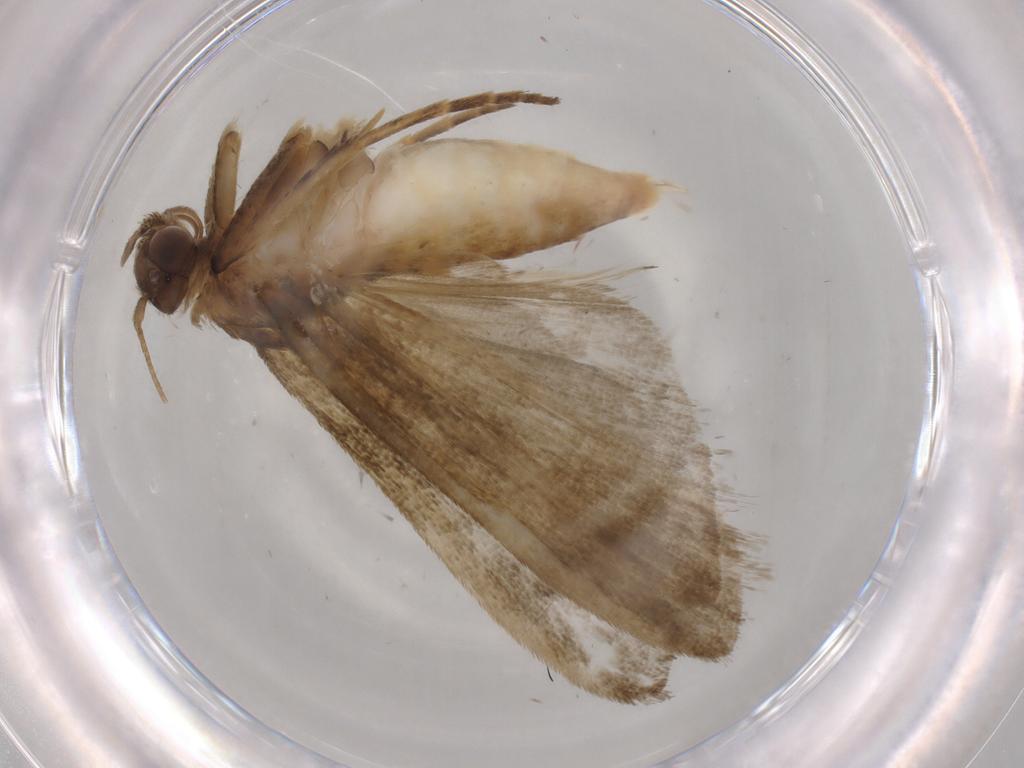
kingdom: Animalia
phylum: Arthropoda
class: Insecta
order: Lepidoptera
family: Noctuidae
